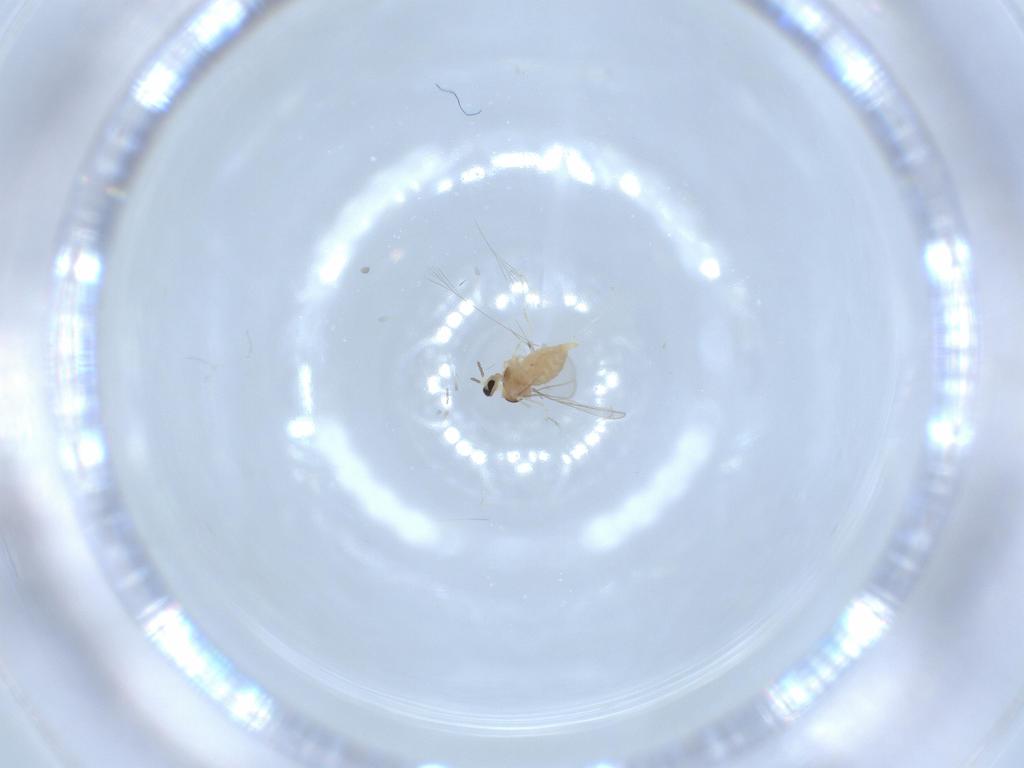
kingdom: Animalia
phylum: Arthropoda
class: Insecta
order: Diptera
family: Cecidomyiidae
